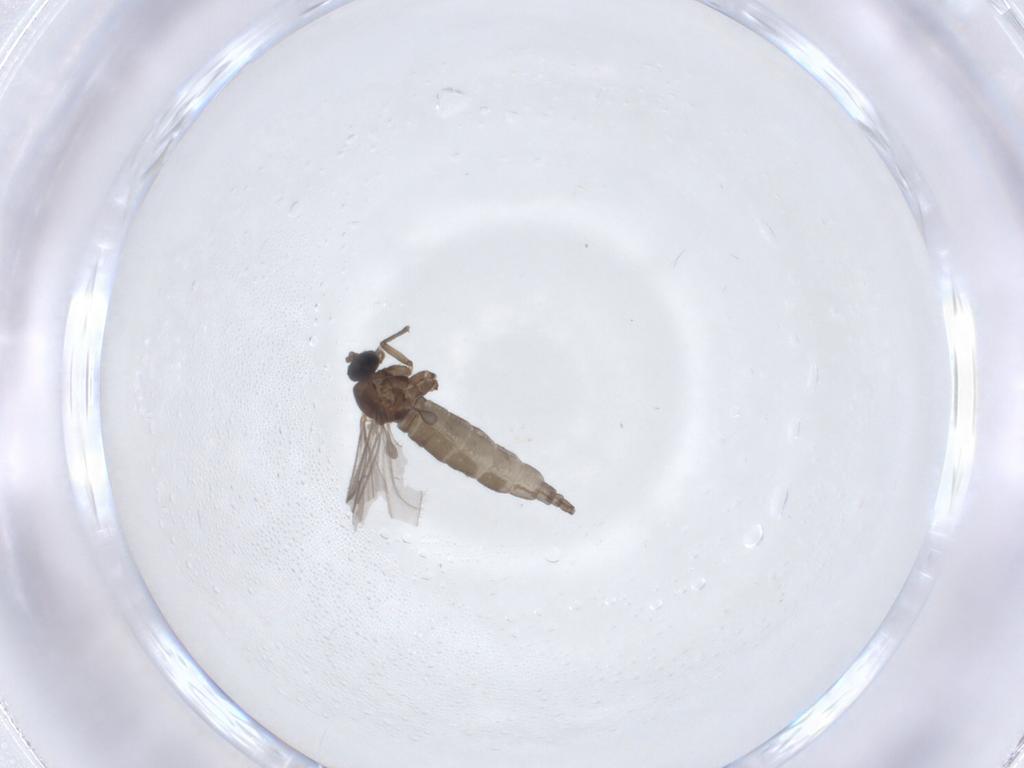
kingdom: Animalia
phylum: Arthropoda
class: Insecta
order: Diptera
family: Sciaridae
